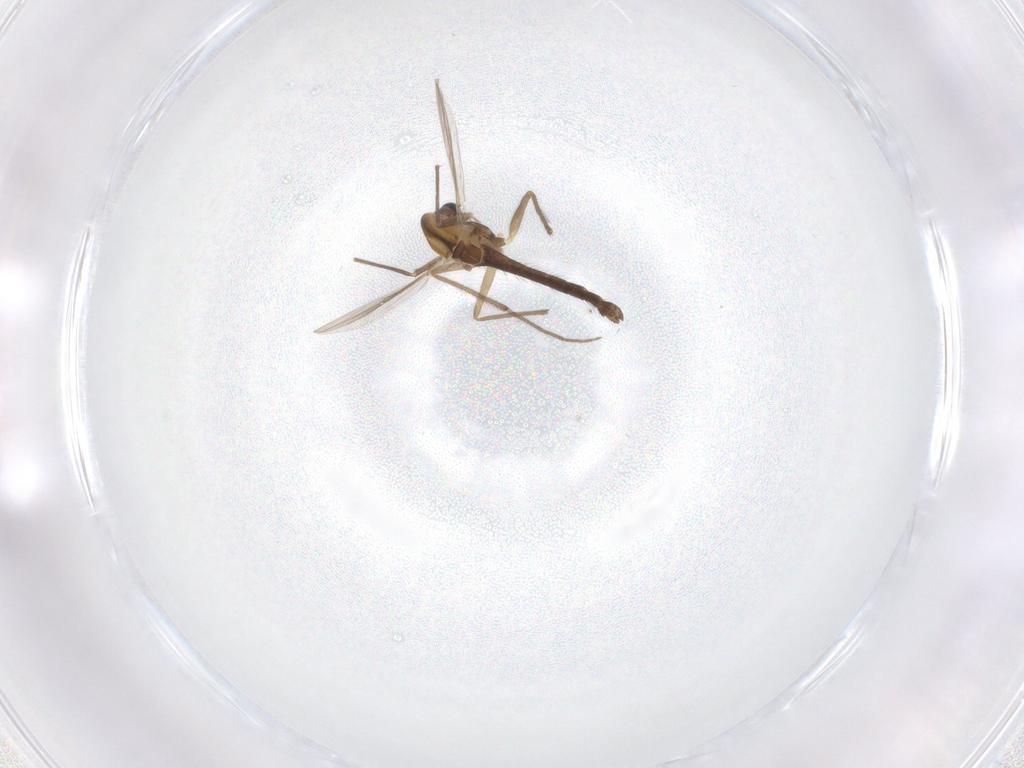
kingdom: Animalia
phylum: Arthropoda
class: Insecta
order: Diptera
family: Chironomidae
